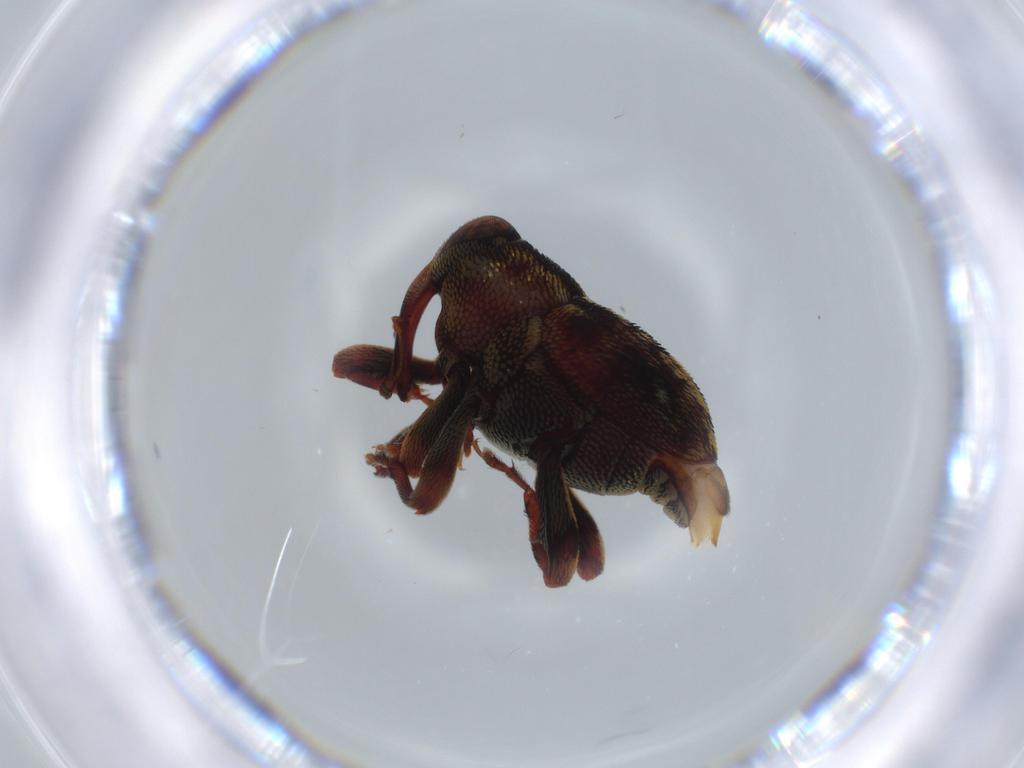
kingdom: Animalia
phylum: Arthropoda
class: Insecta
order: Coleoptera
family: Curculionidae
